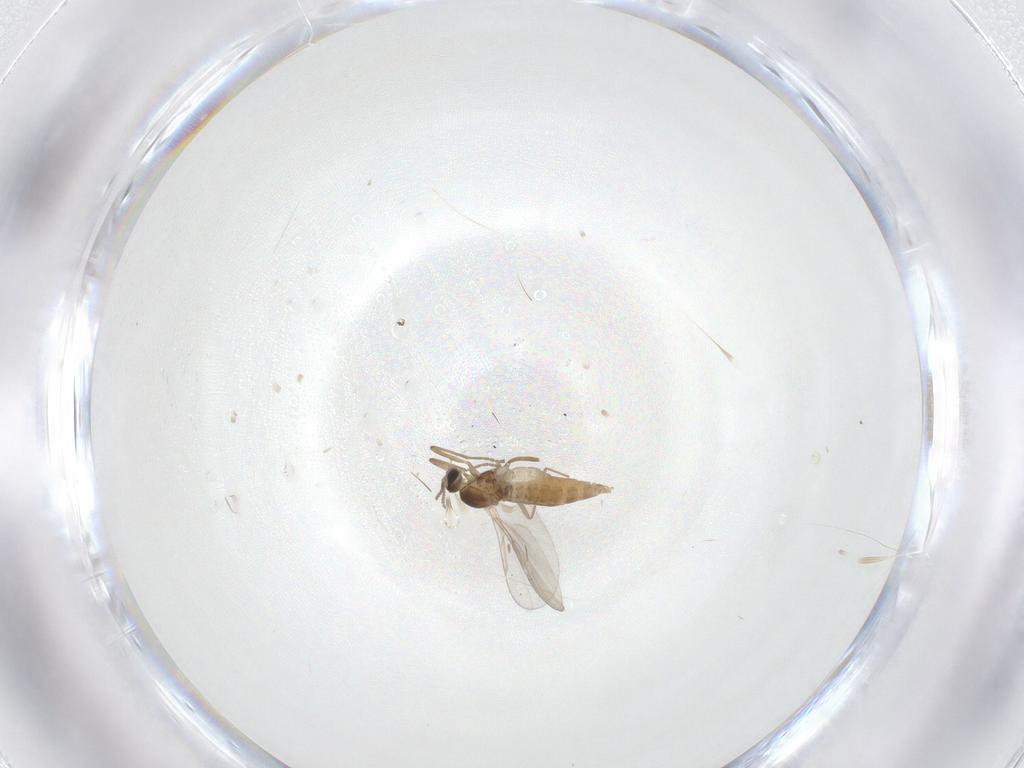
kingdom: Animalia
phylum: Arthropoda
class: Insecta
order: Diptera
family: Cecidomyiidae
